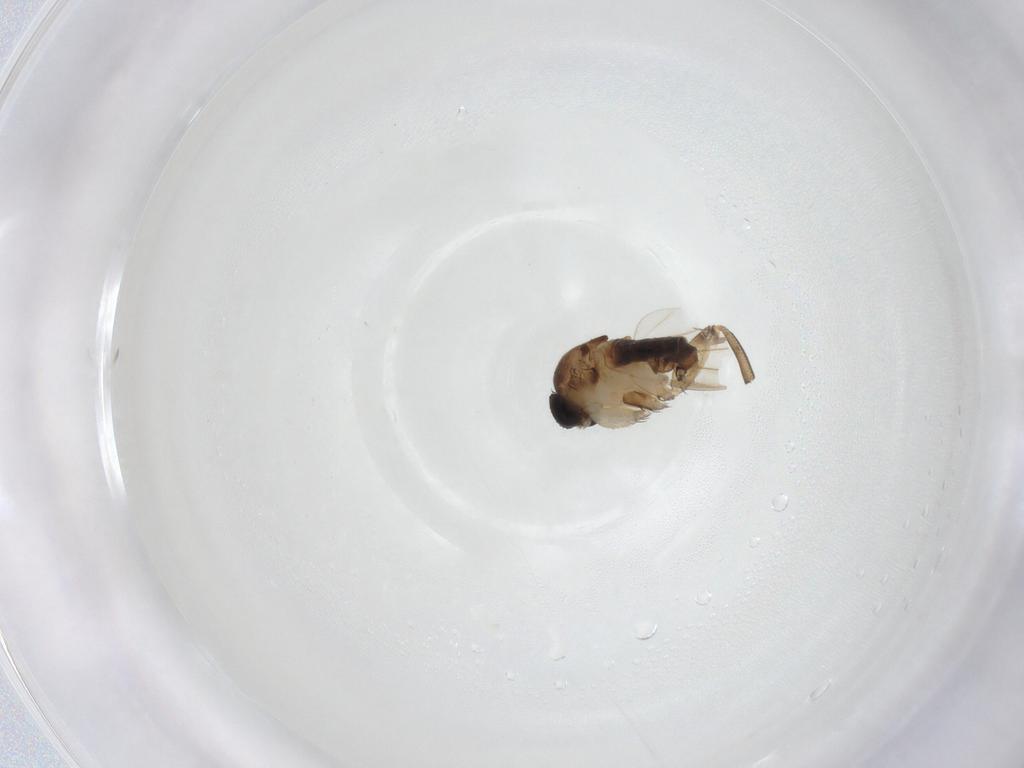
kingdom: Animalia
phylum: Arthropoda
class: Insecta
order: Diptera
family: Phoridae
